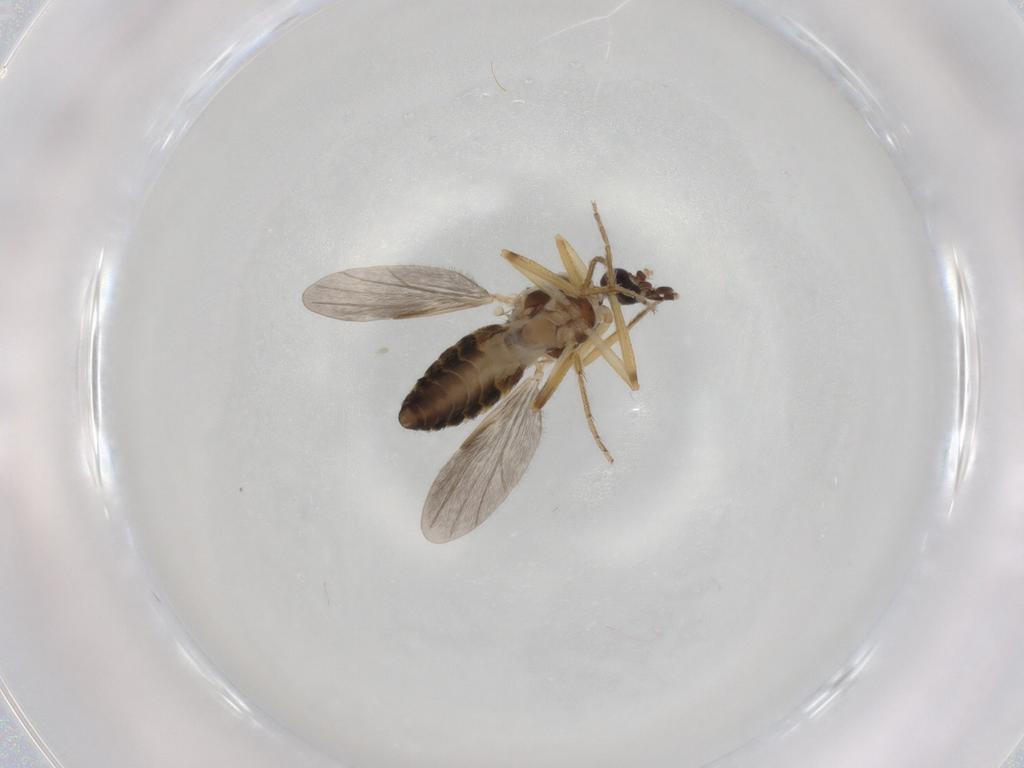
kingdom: Animalia
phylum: Arthropoda
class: Insecta
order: Diptera
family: Ceratopogonidae
